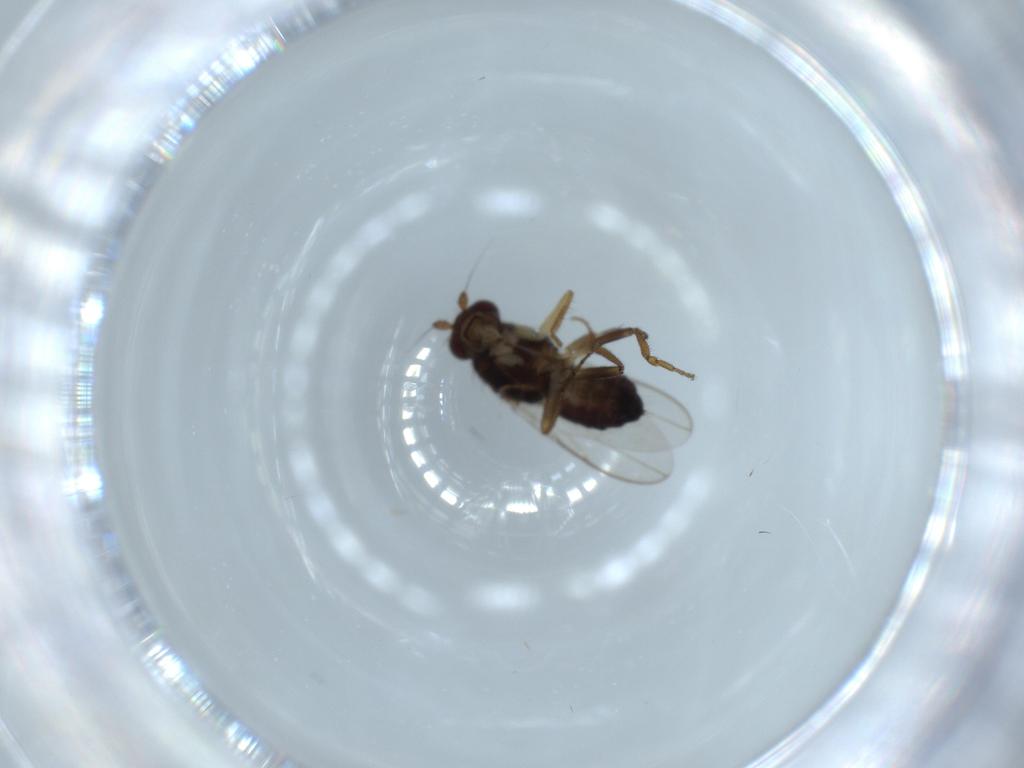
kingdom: Animalia
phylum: Arthropoda
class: Insecta
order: Diptera
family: Sphaeroceridae
